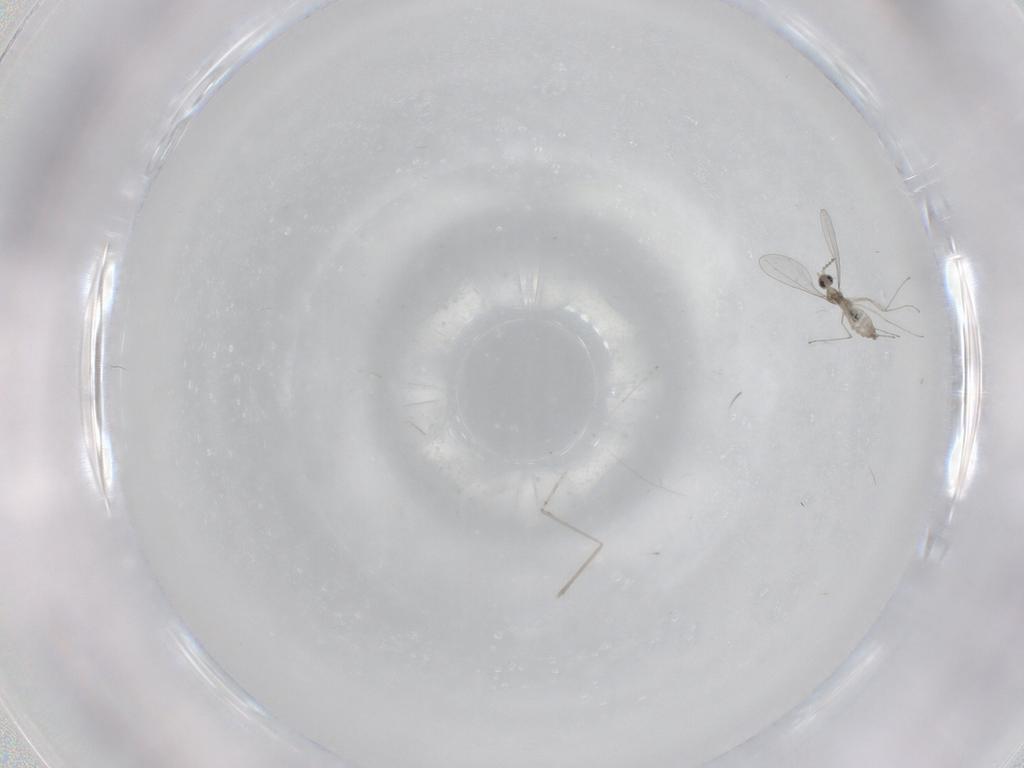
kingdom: Animalia
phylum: Arthropoda
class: Insecta
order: Diptera
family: Cecidomyiidae
